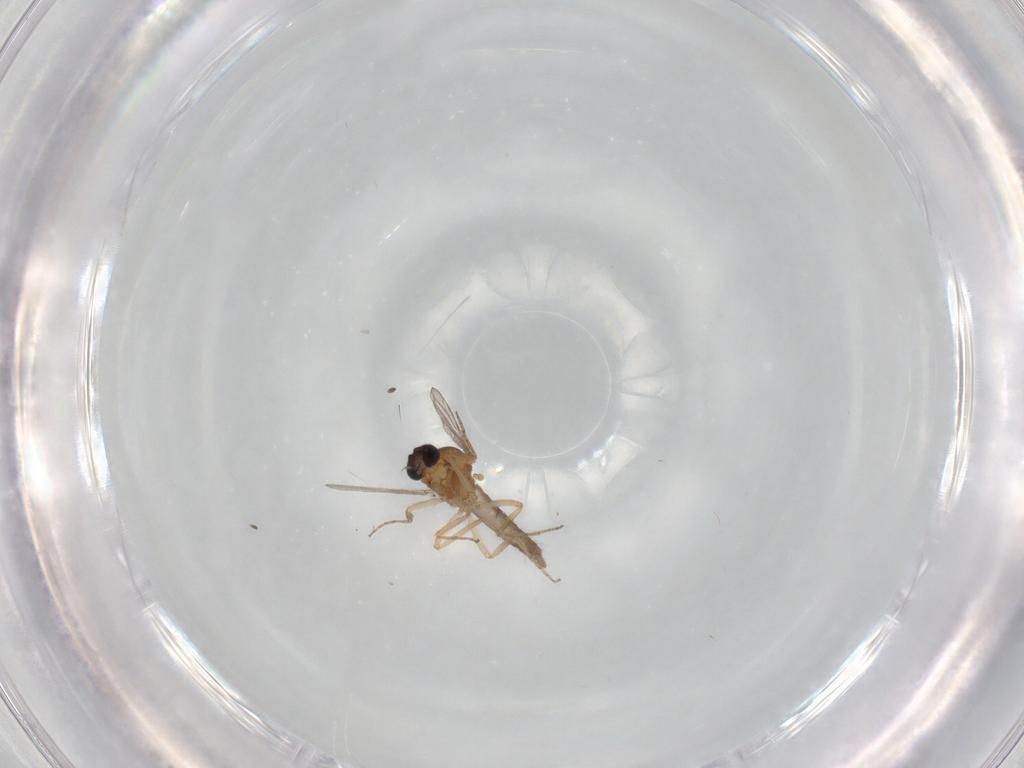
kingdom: Animalia
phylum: Arthropoda
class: Insecta
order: Diptera
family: Ceratopogonidae
